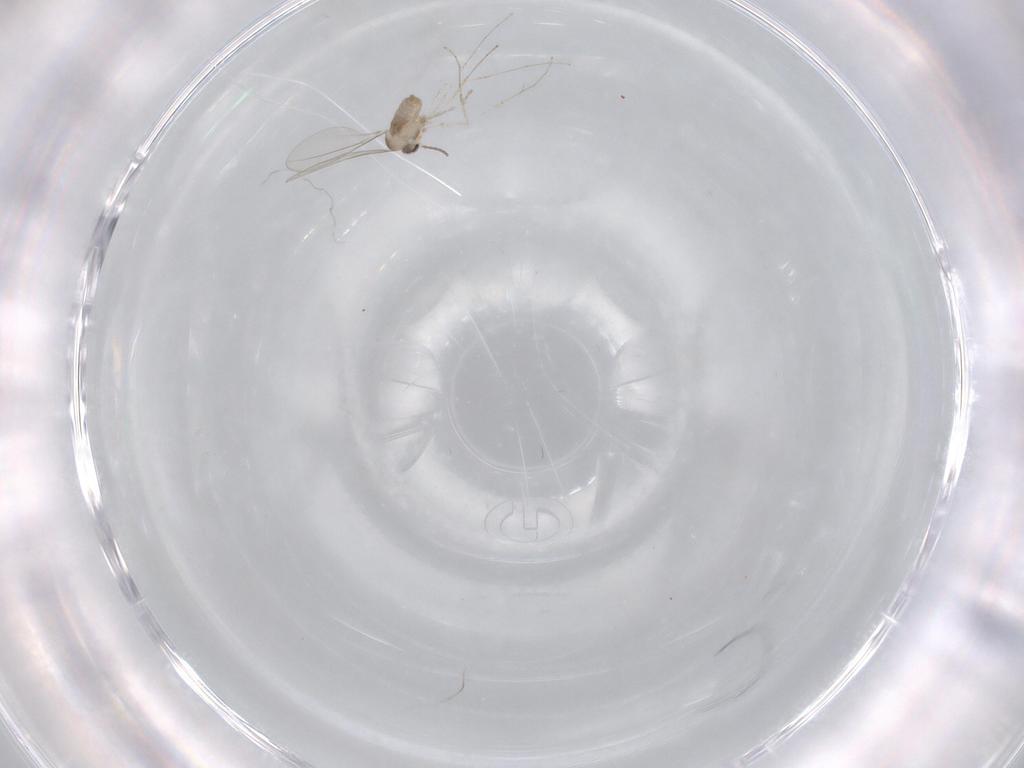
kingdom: Animalia
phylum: Arthropoda
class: Insecta
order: Diptera
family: Cecidomyiidae
